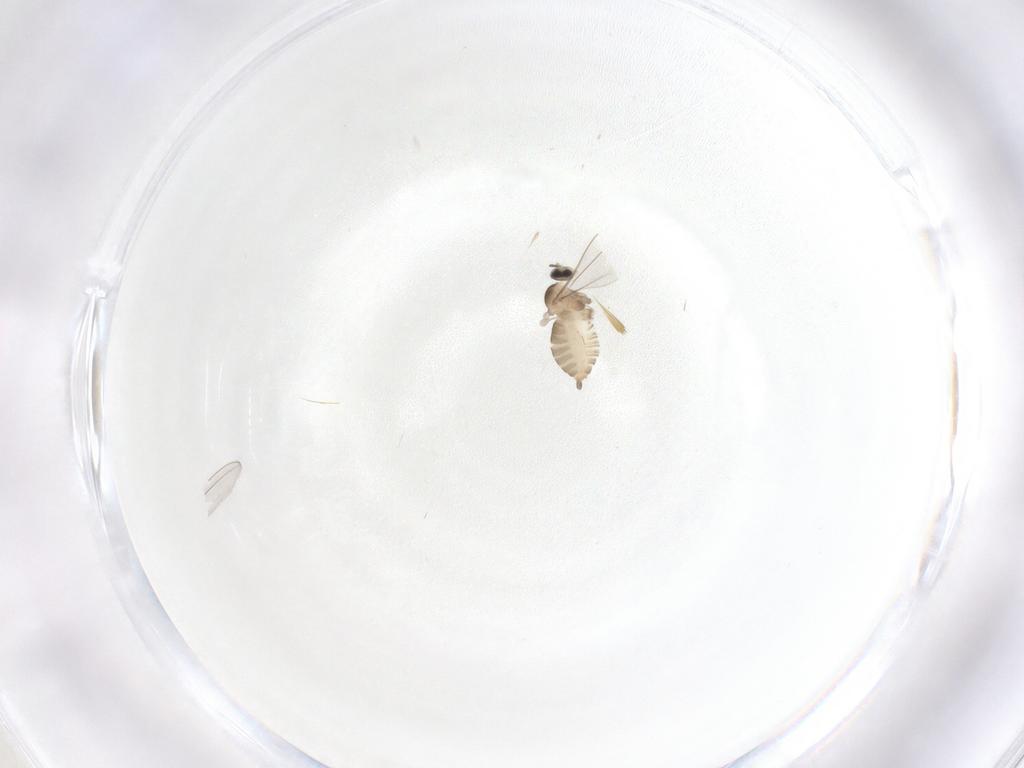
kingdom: Animalia
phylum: Arthropoda
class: Insecta
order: Diptera
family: Cecidomyiidae
